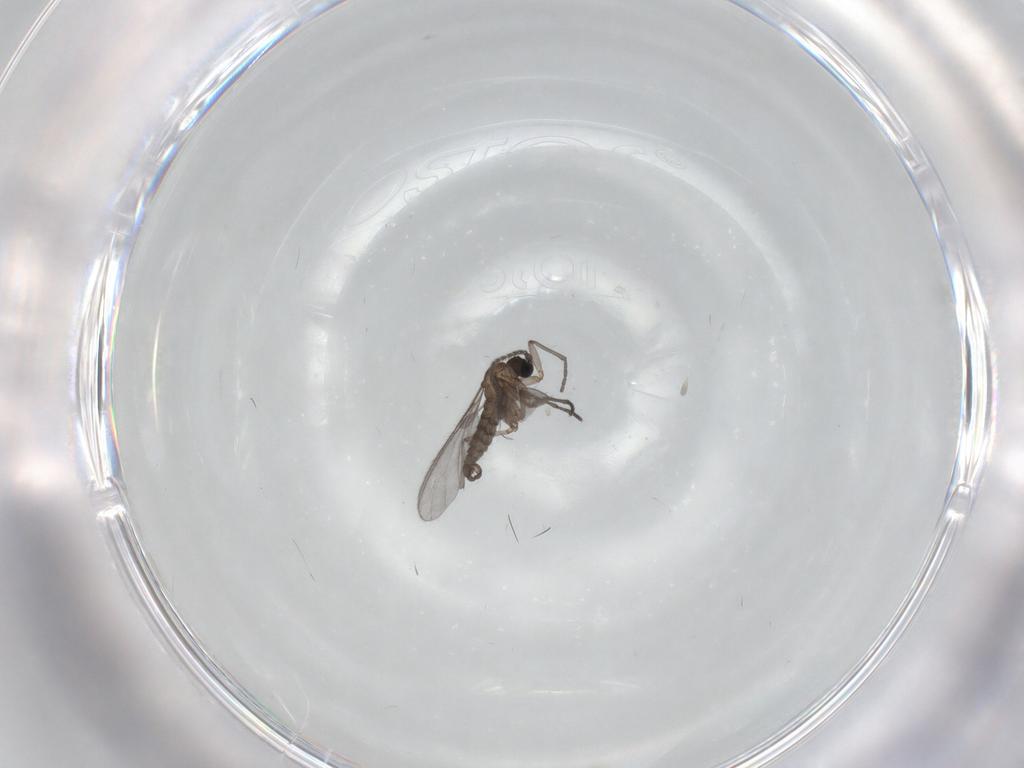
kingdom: Animalia
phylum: Arthropoda
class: Insecta
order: Diptera
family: Sciaridae
